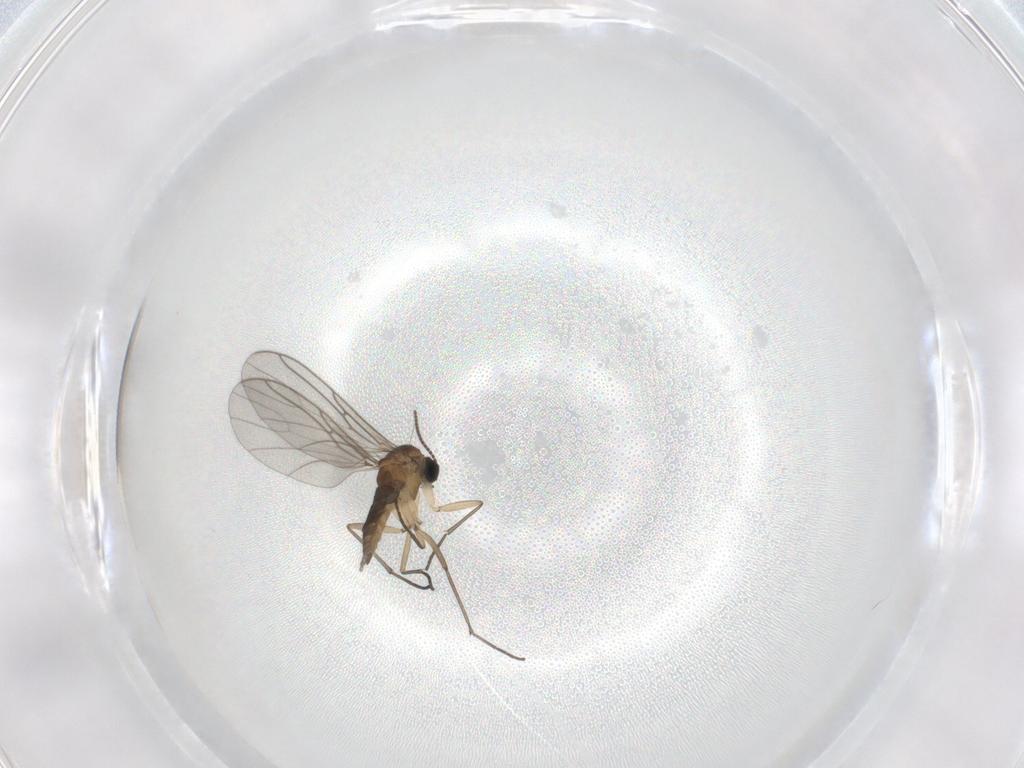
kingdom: Animalia
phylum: Arthropoda
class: Insecta
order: Diptera
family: Sciaridae
